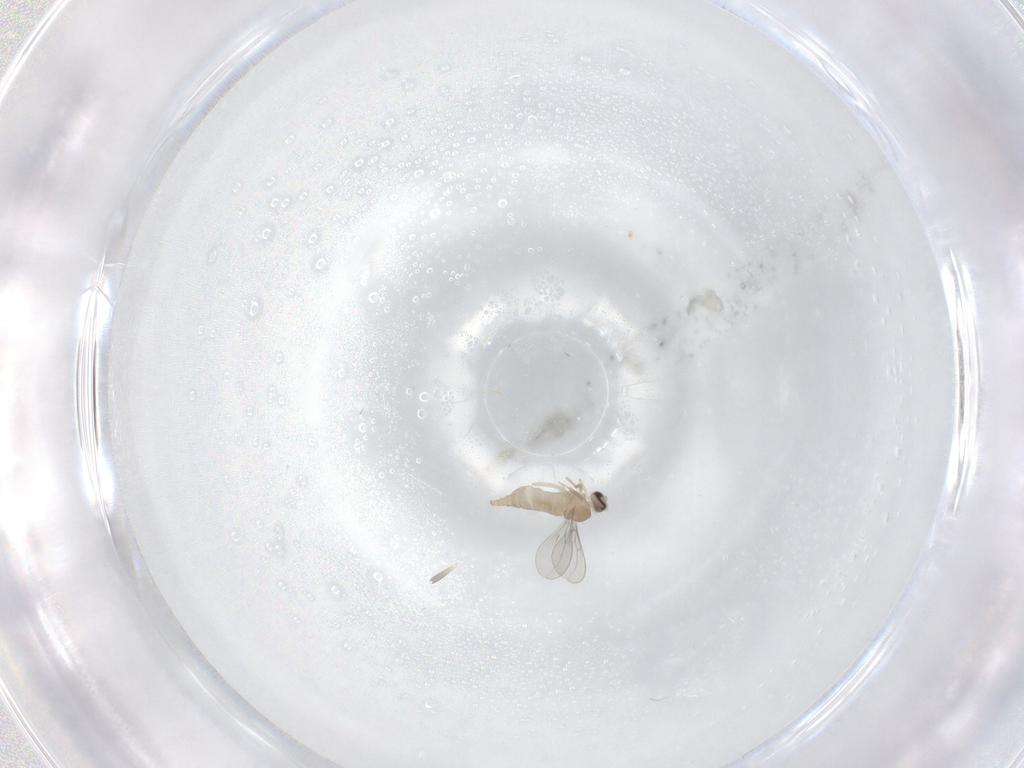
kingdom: Animalia
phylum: Arthropoda
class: Insecta
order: Diptera
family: Cecidomyiidae
